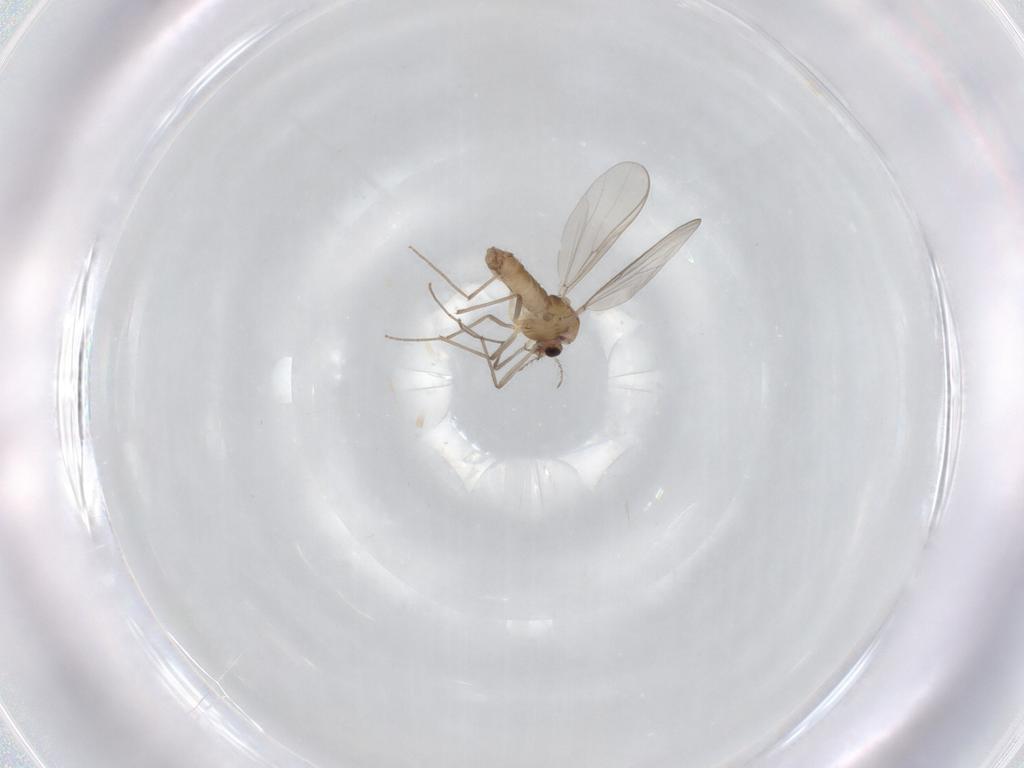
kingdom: Animalia
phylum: Arthropoda
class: Insecta
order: Diptera
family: Chironomidae
